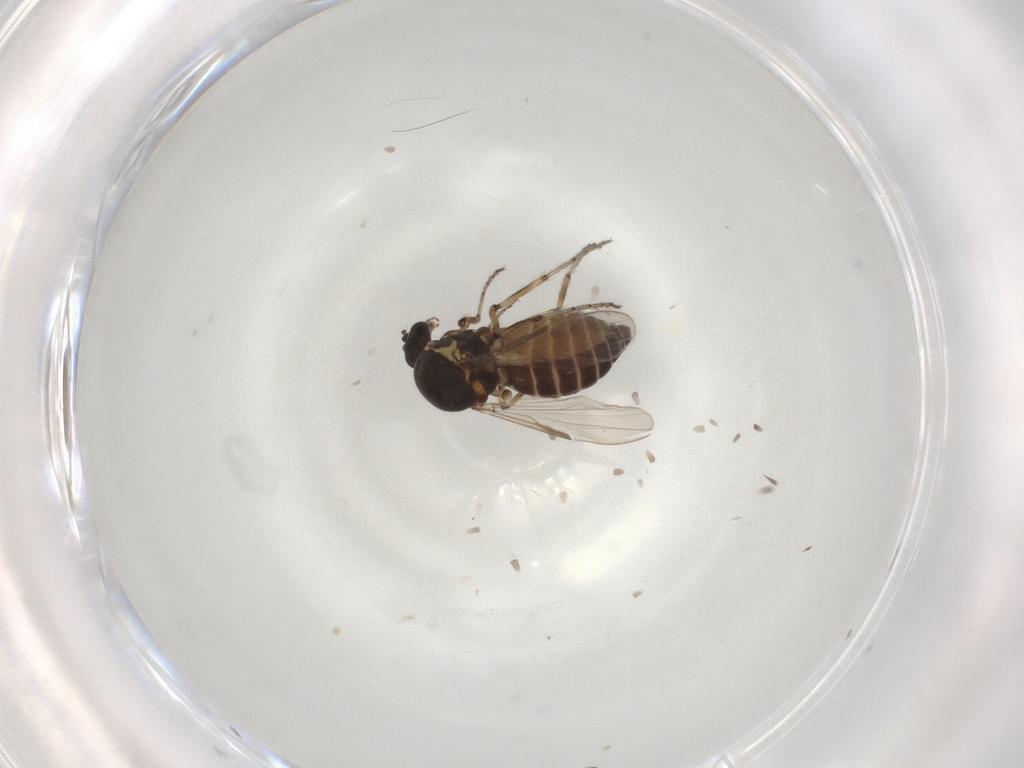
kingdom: Animalia
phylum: Arthropoda
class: Insecta
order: Diptera
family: Ceratopogonidae
